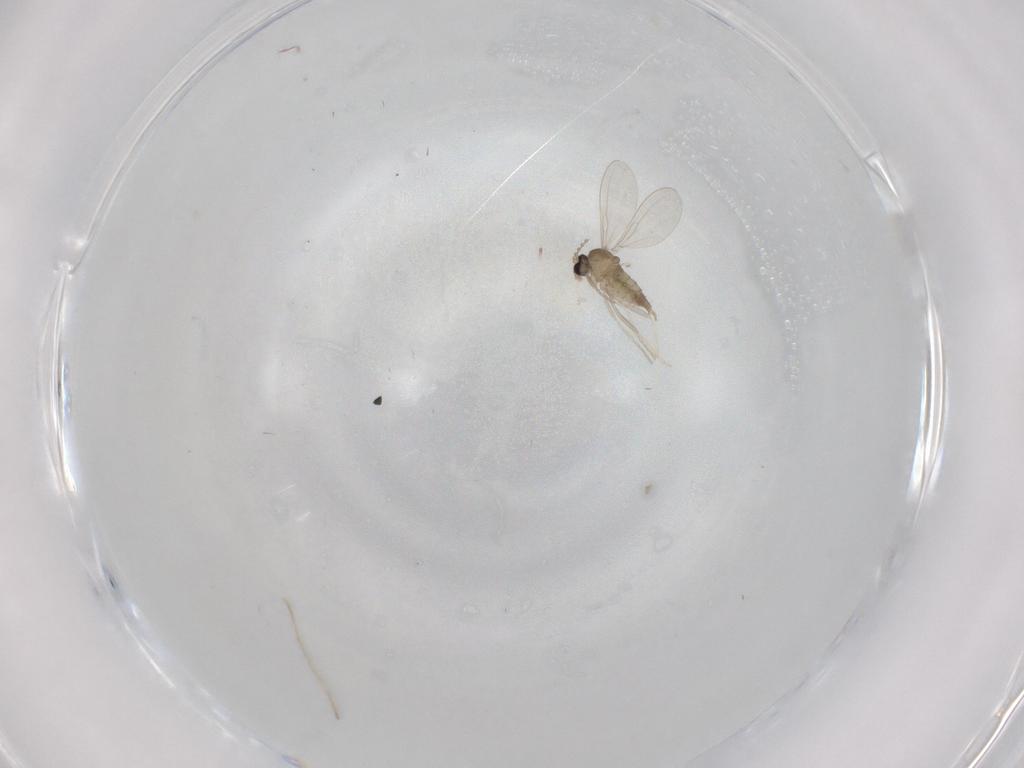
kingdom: Animalia
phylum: Arthropoda
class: Insecta
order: Diptera
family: Cecidomyiidae
